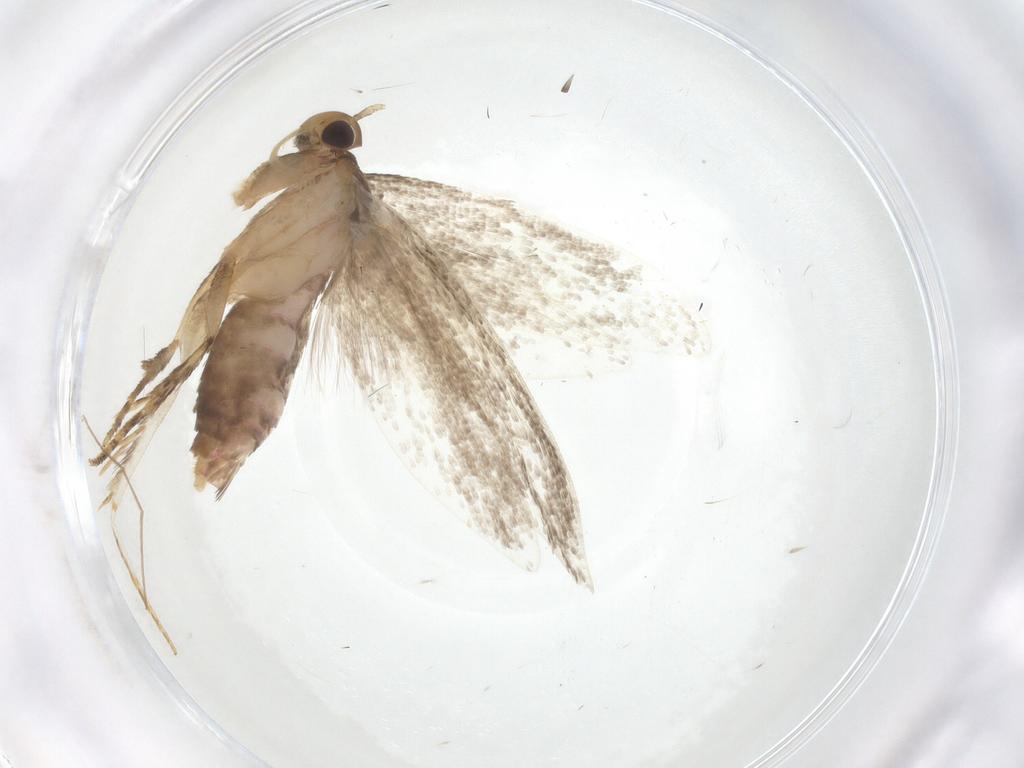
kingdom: Animalia
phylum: Arthropoda
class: Insecta
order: Lepidoptera
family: Oecophoridae
